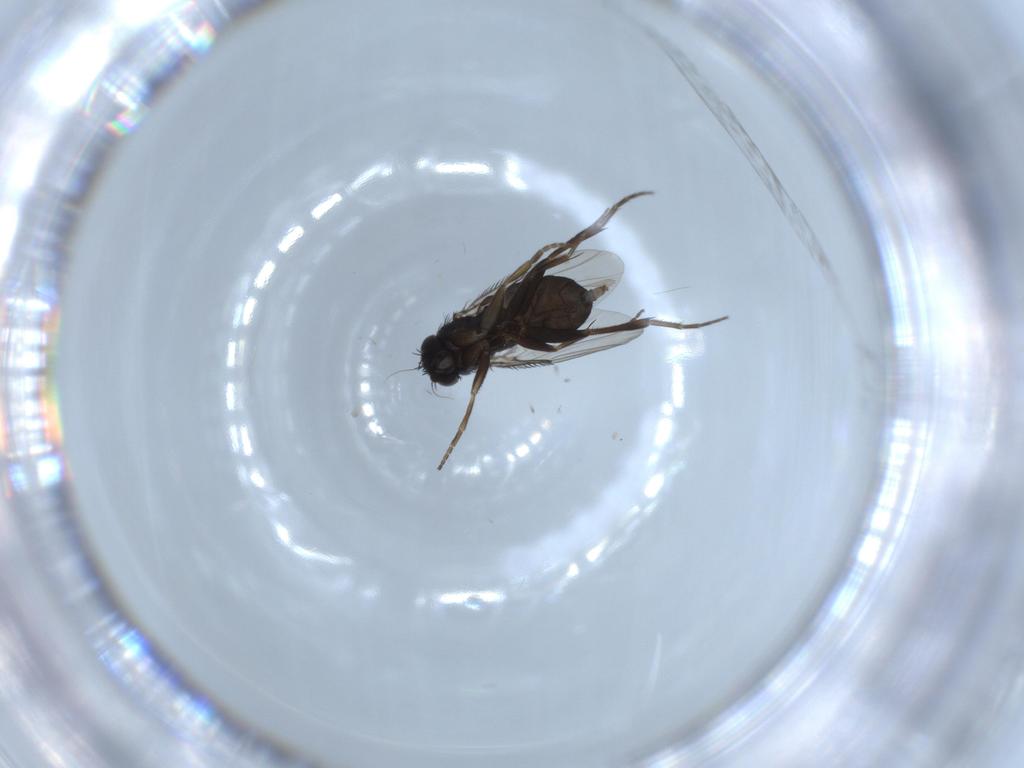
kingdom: Animalia
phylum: Arthropoda
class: Insecta
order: Diptera
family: Phoridae
